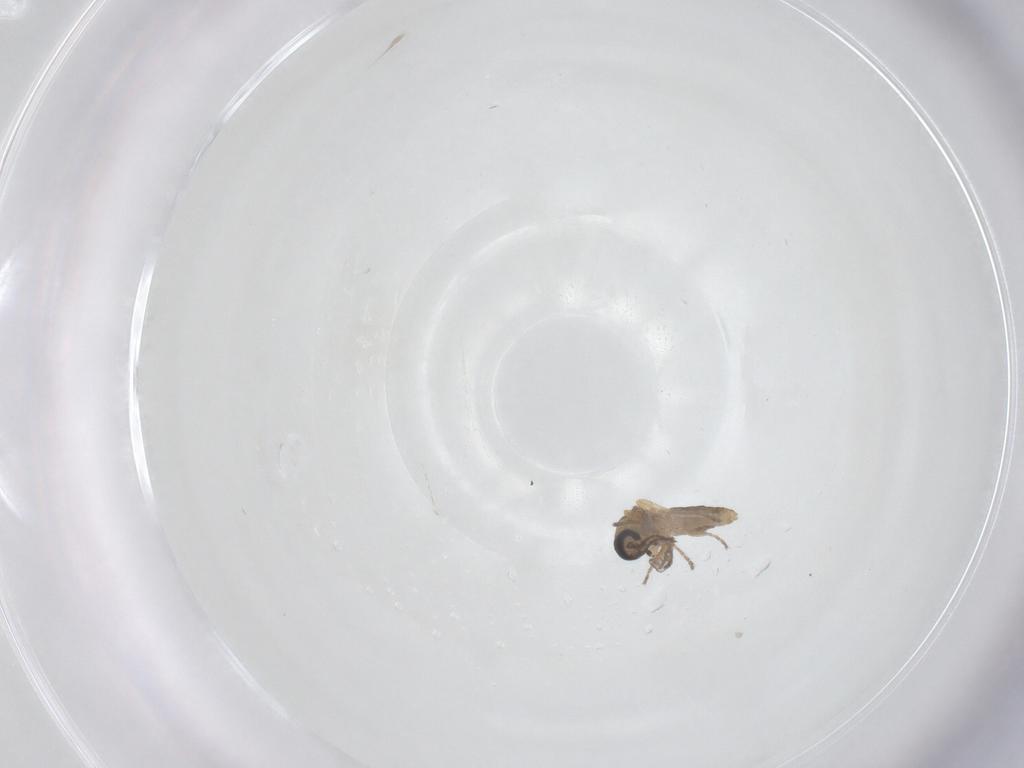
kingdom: Animalia
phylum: Arthropoda
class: Insecta
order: Diptera
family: Ceratopogonidae
